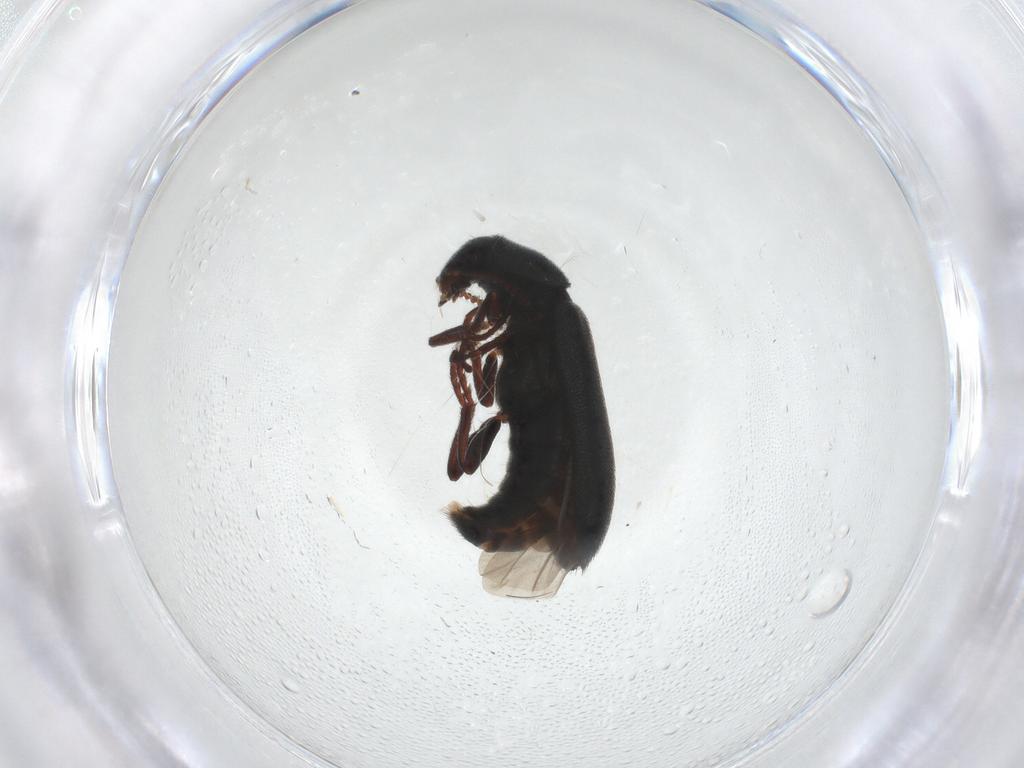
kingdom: Animalia
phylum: Arthropoda
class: Insecta
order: Coleoptera
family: Melyridae
